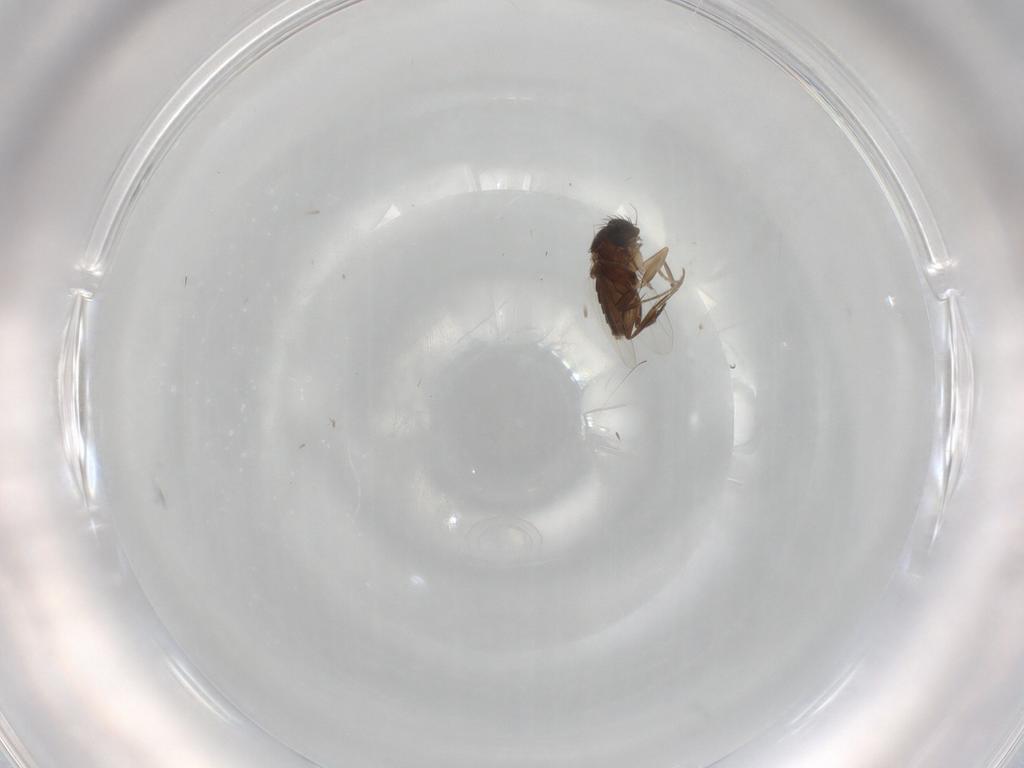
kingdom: Animalia
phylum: Arthropoda
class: Insecta
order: Diptera
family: Phoridae
